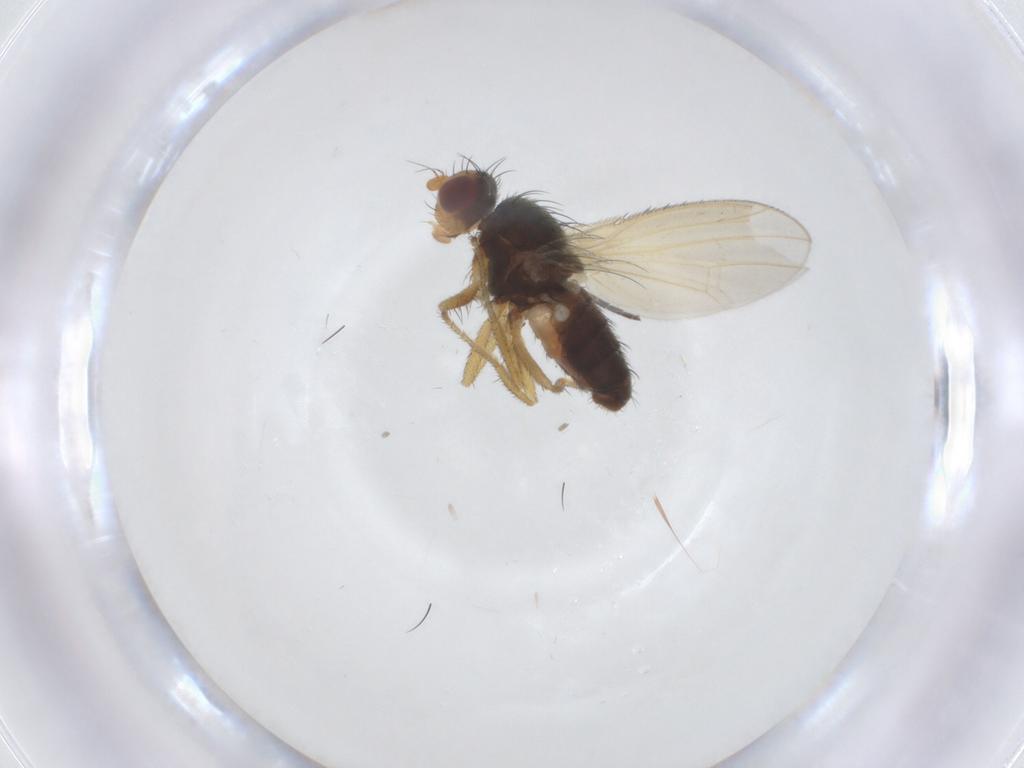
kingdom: Animalia
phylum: Arthropoda
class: Insecta
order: Diptera
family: Heleomyzidae
